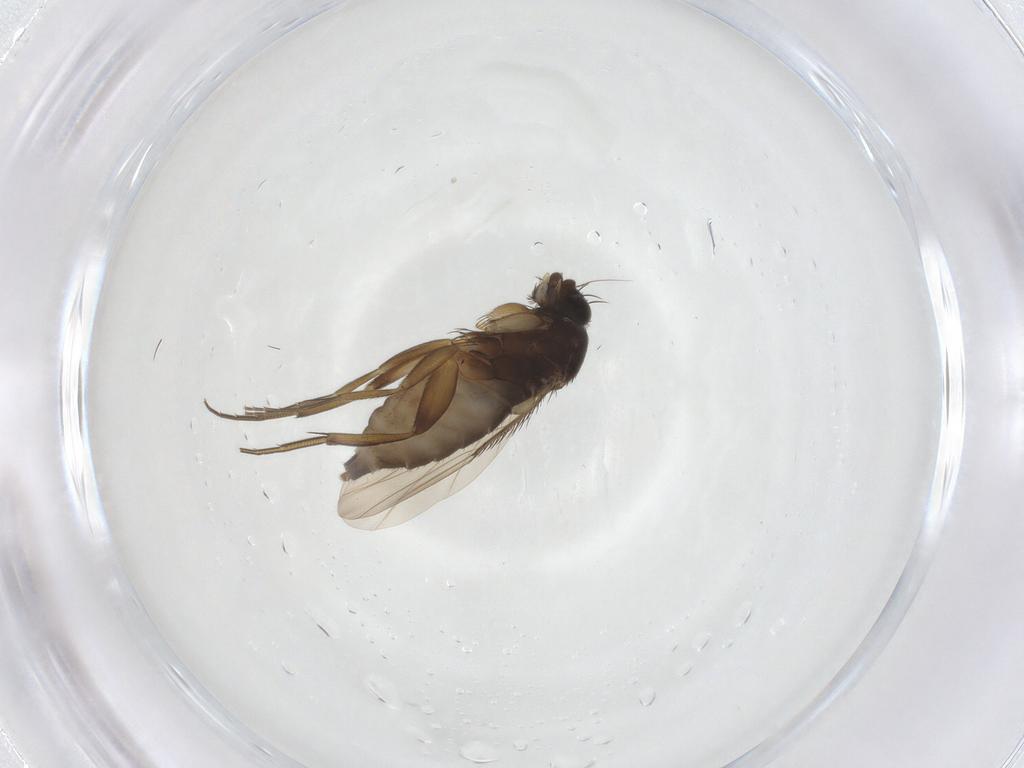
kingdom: Animalia
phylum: Arthropoda
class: Insecta
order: Diptera
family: Phoridae
